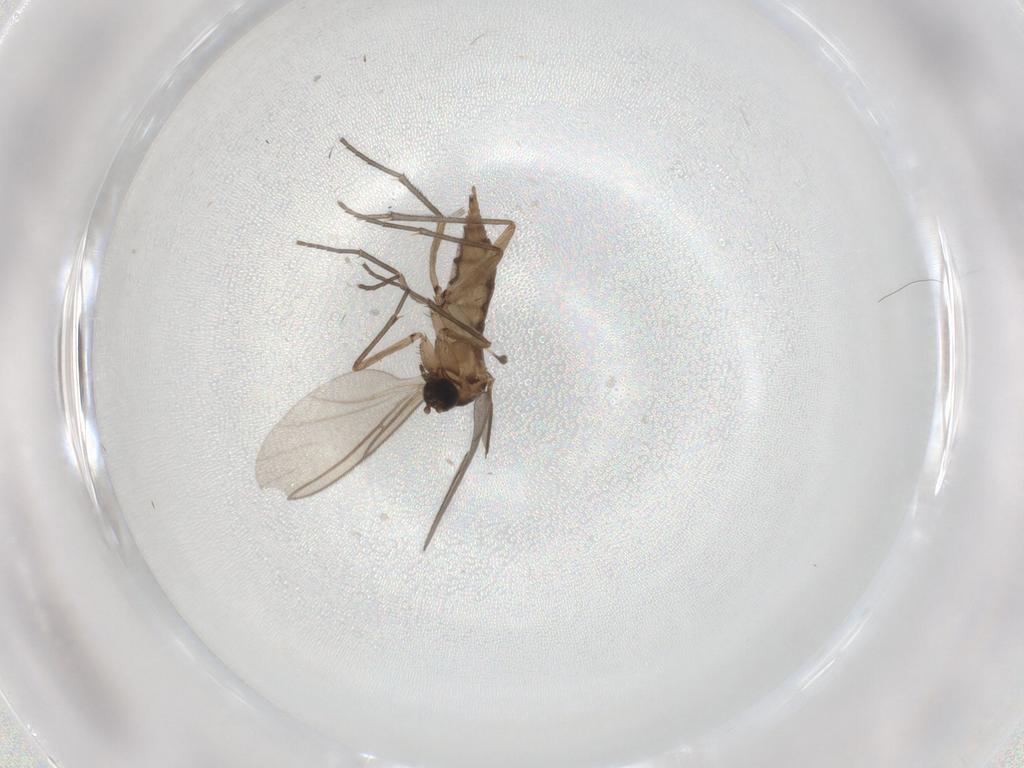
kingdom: Animalia
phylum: Arthropoda
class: Insecta
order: Diptera
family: Sciaridae
